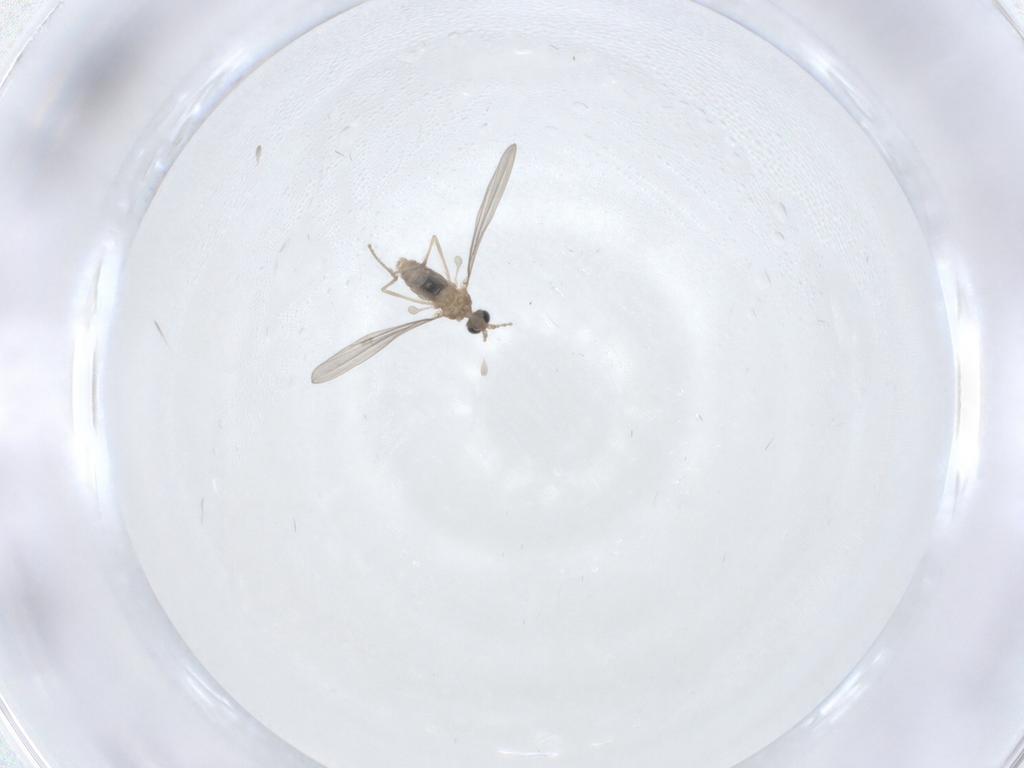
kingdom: Animalia
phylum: Arthropoda
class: Insecta
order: Diptera
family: Cecidomyiidae
